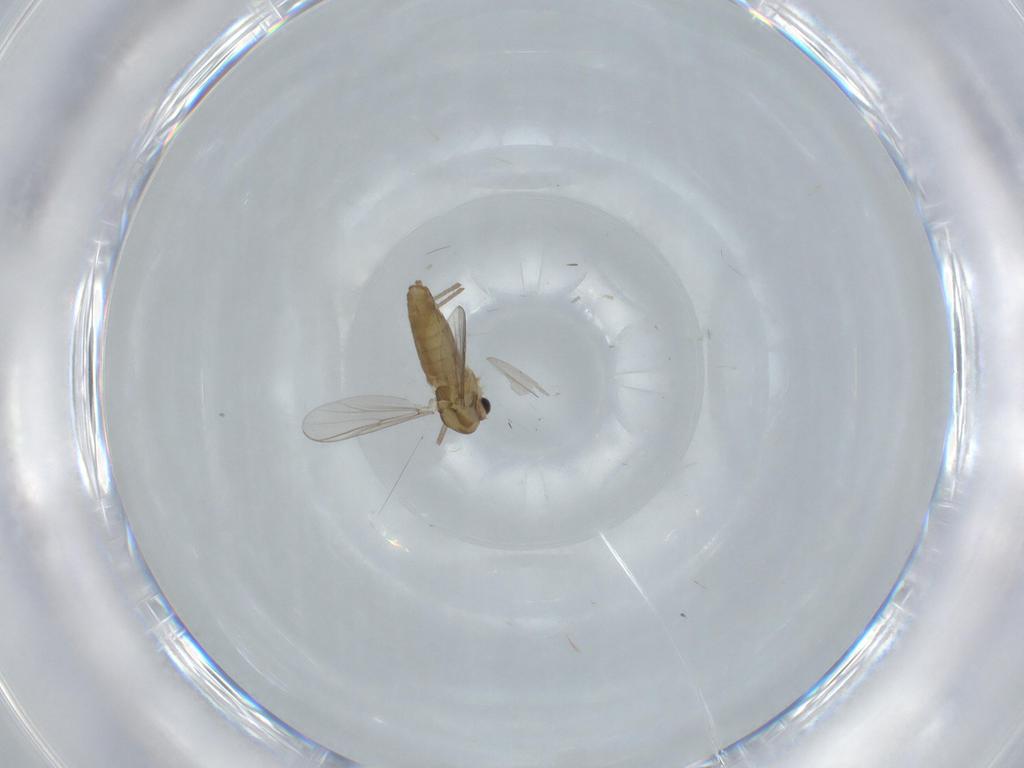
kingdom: Animalia
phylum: Arthropoda
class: Insecta
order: Diptera
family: Chironomidae
